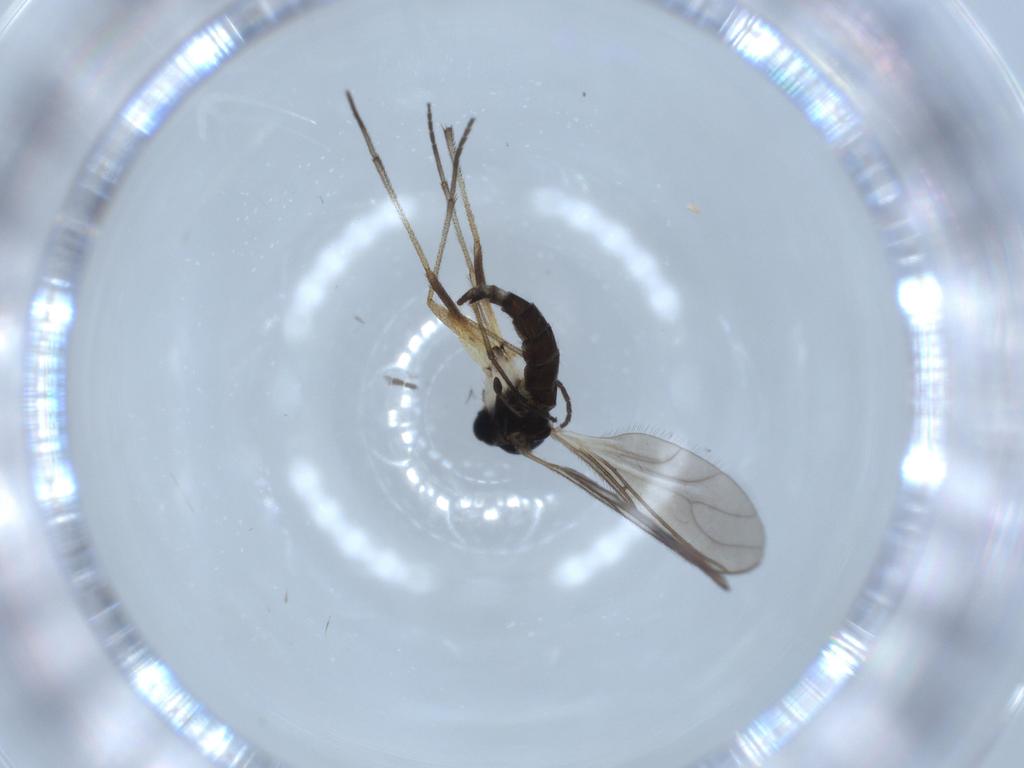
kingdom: Animalia
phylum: Arthropoda
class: Insecta
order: Diptera
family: Sciaridae
